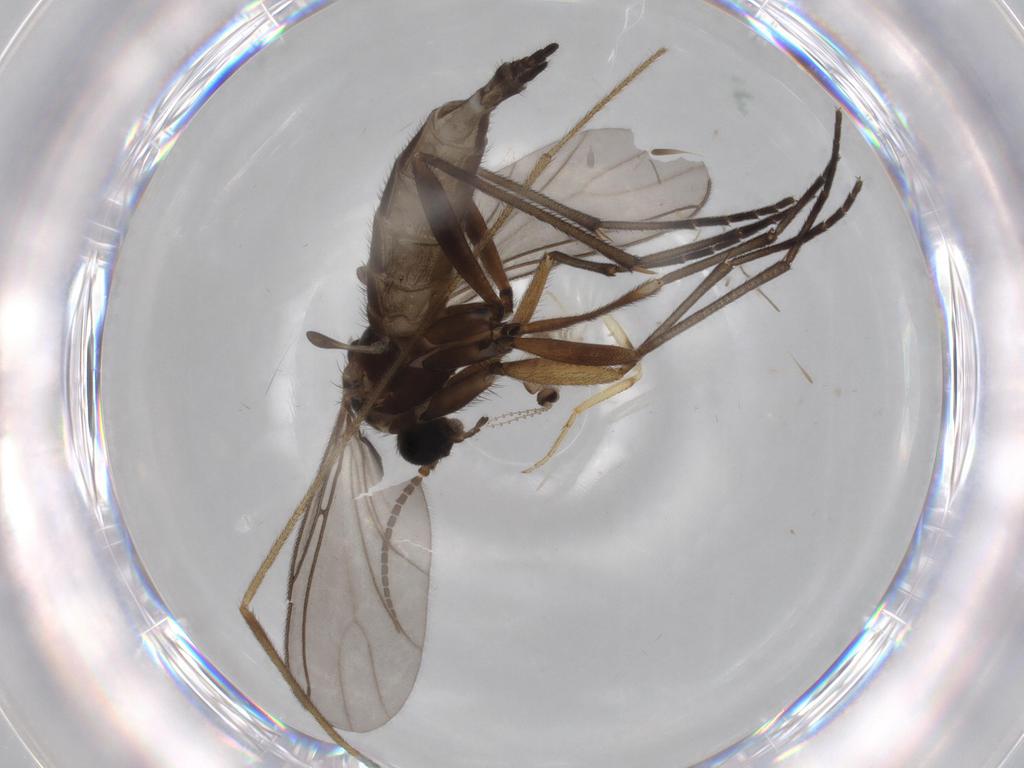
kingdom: Animalia
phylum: Arthropoda
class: Insecta
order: Diptera
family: Sciaridae
